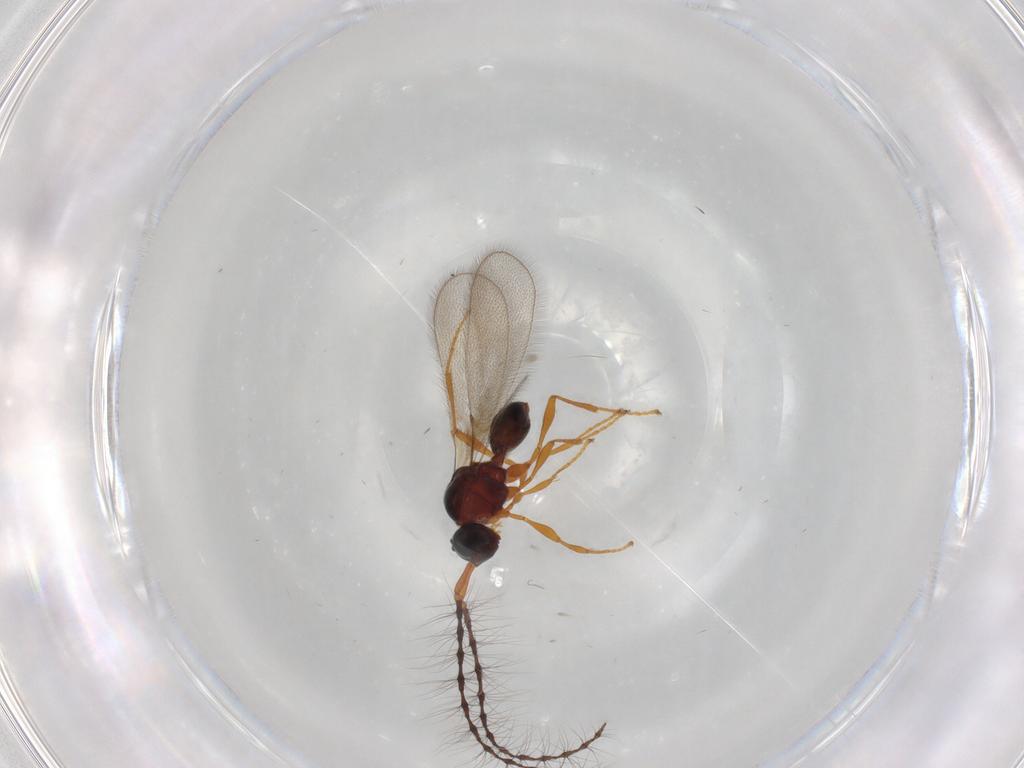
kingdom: Animalia
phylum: Arthropoda
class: Insecta
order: Hymenoptera
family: Diapriidae
